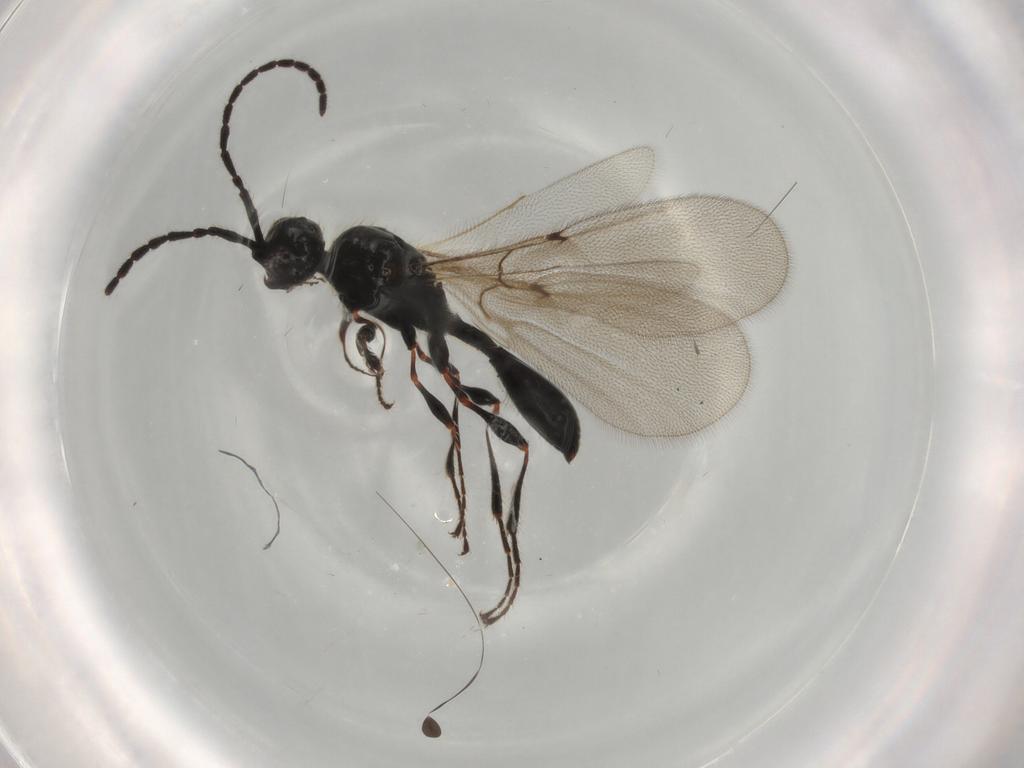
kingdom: Animalia
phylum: Arthropoda
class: Insecta
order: Hymenoptera
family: Diapriidae
